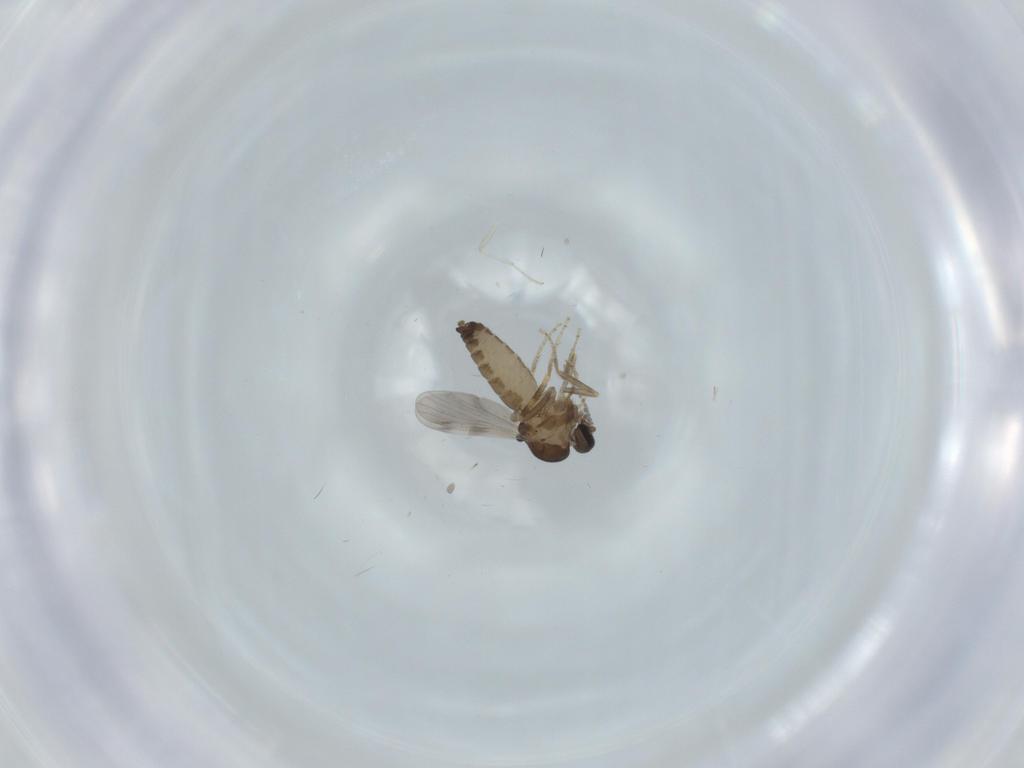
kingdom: Animalia
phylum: Arthropoda
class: Insecta
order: Diptera
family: Ceratopogonidae
